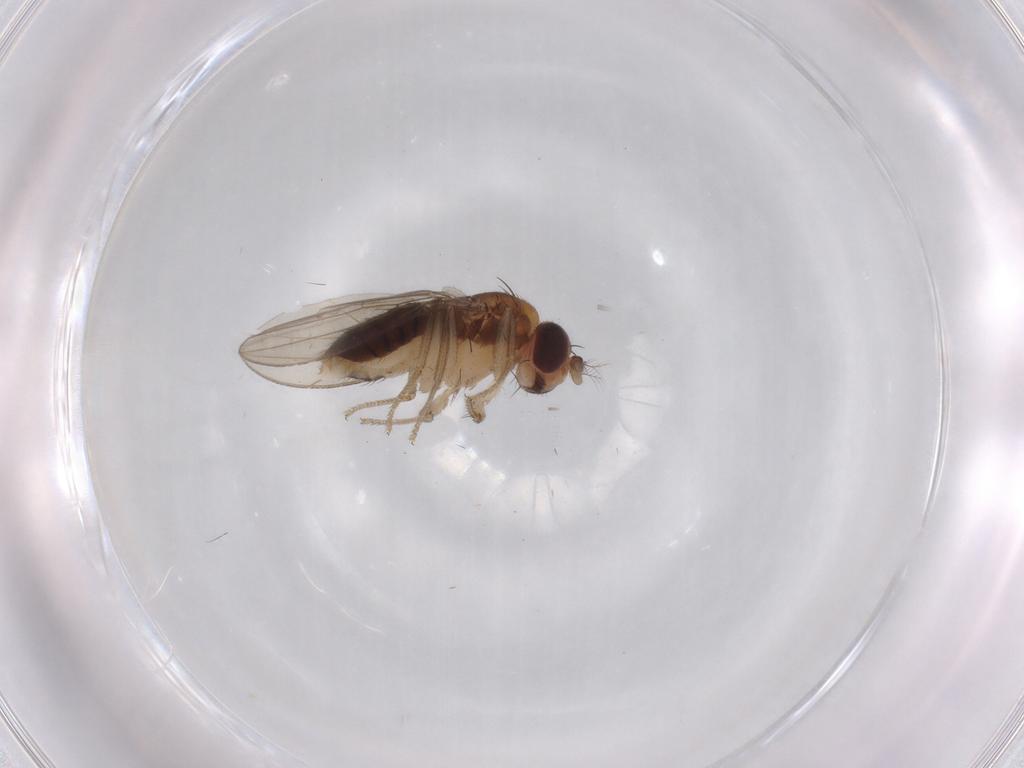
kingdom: Animalia
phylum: Arthropoda
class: Insecta
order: Diptera
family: Drosophilidae
